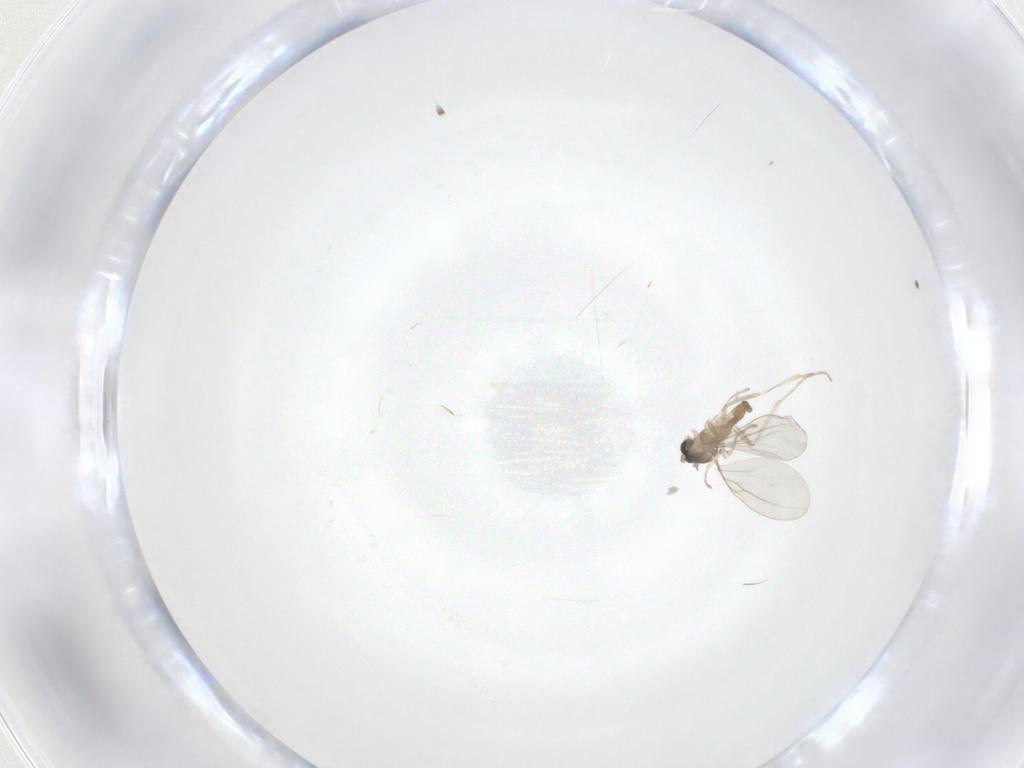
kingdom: Animalia
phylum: Arthropoda
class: Insecta
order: Diptera
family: Cecidomyiidae
